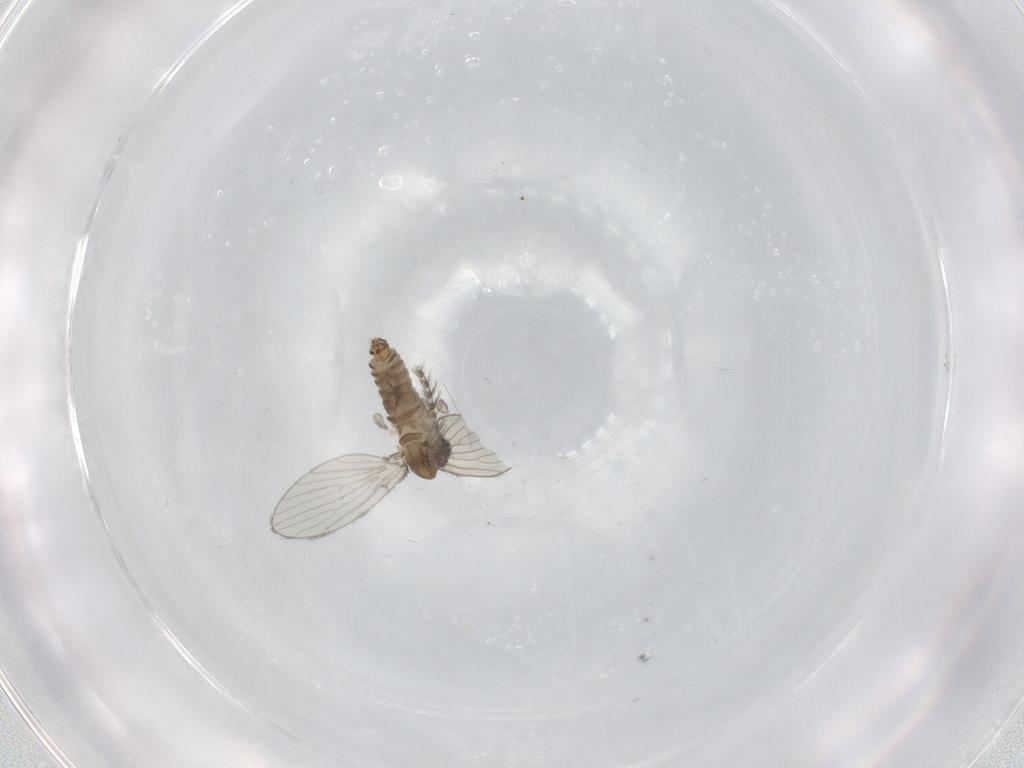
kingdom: Animalia
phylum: Arthropoda
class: Insecta
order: Diptera
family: Psychodidae
